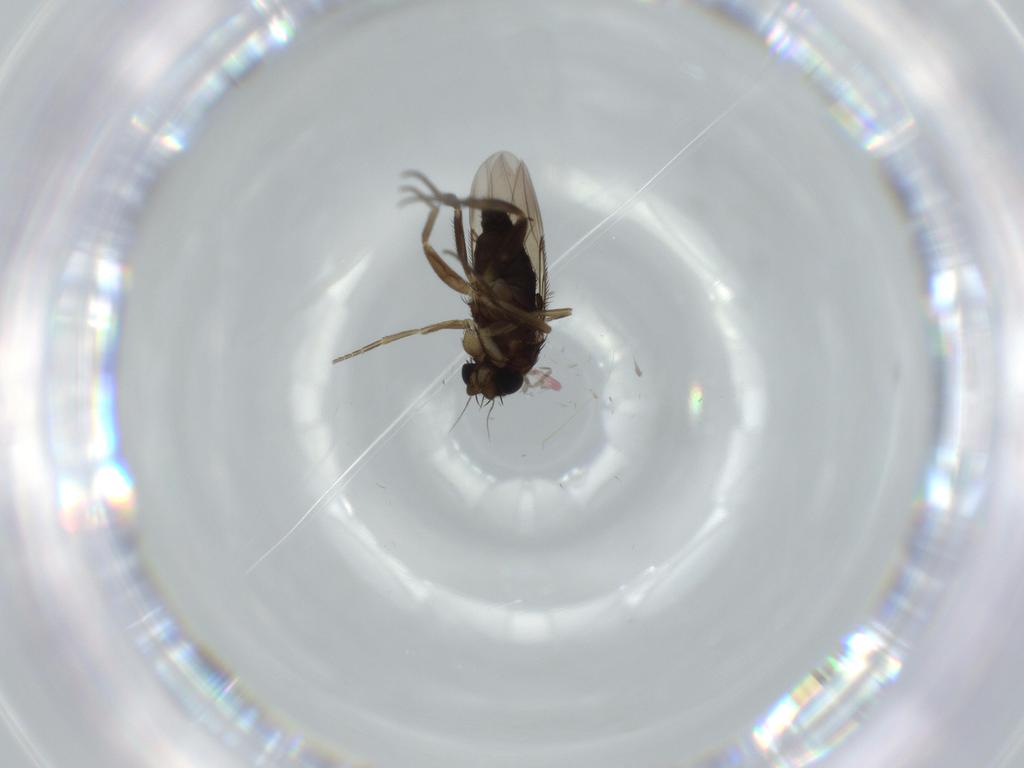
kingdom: Animalia
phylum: Arthropoda
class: Insecta
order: Diptera
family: Phoridae
